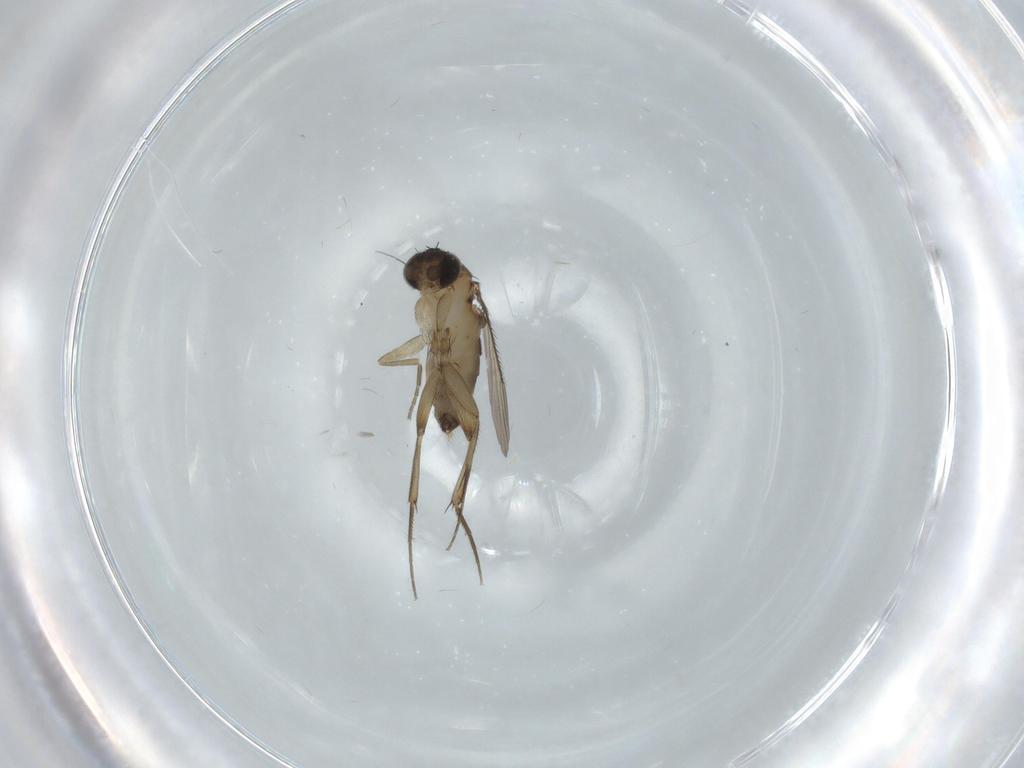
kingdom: Animalia
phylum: Arthropoda
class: Insecta
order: Diptera
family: Phoridae
